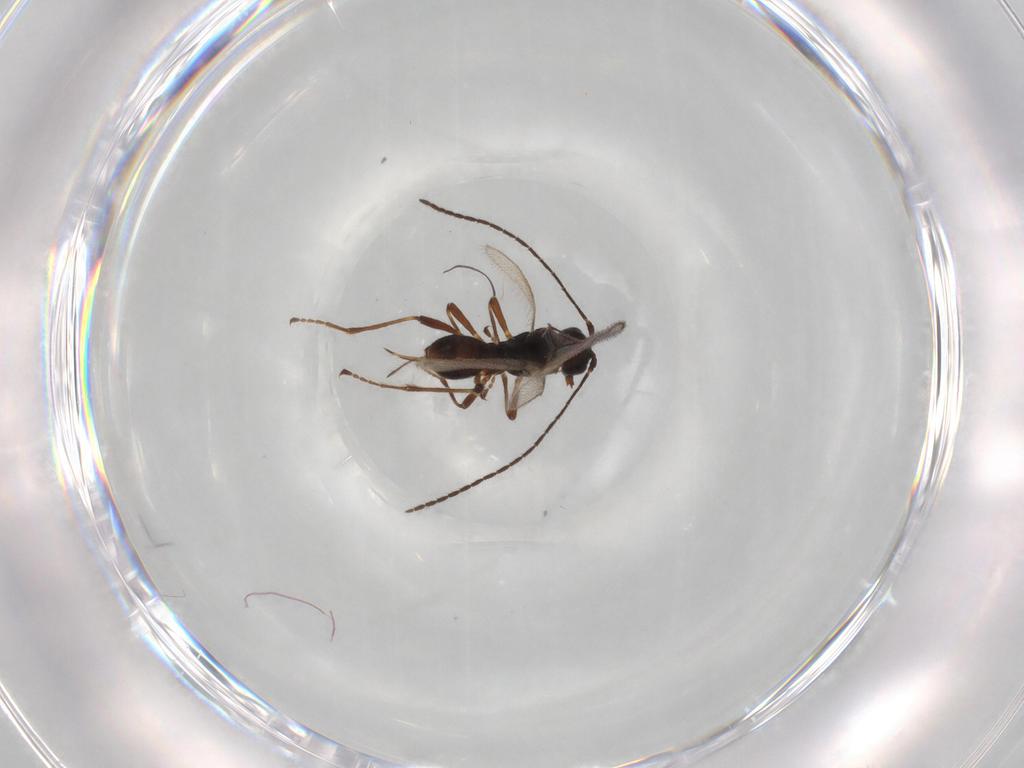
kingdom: Animalia
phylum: Arthropoda
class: Insecta
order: Hymenoptera
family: Braconidae
